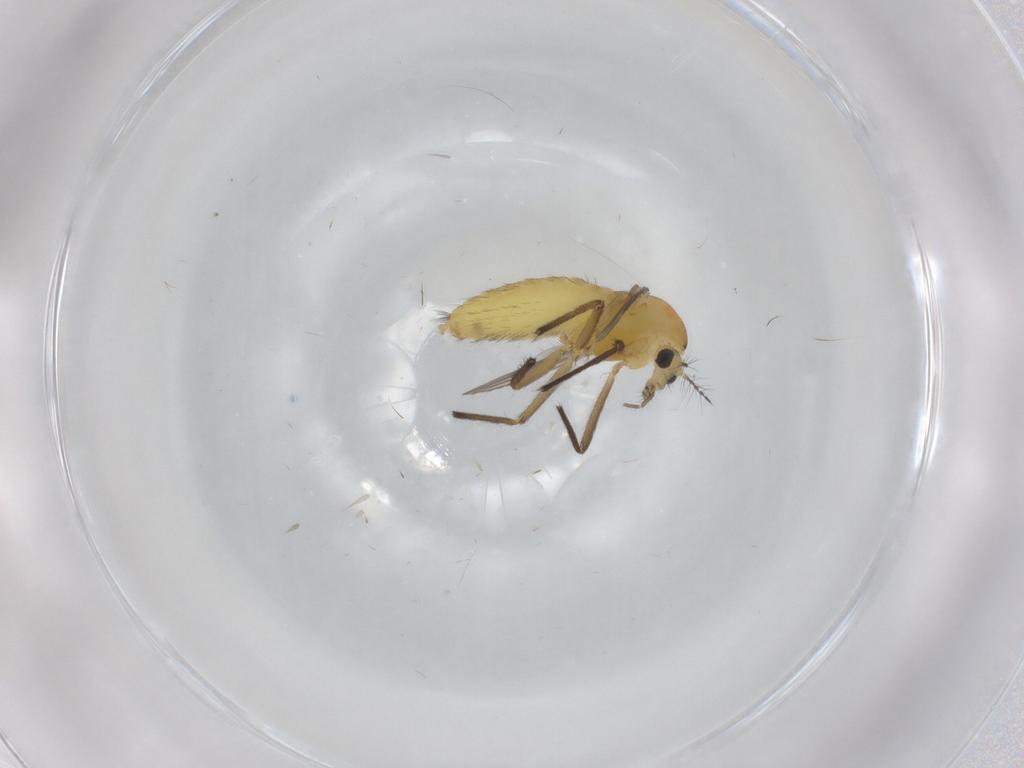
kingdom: Animalia
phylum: Arthropoda
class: Insecta
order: Diptera
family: Chironomidae
